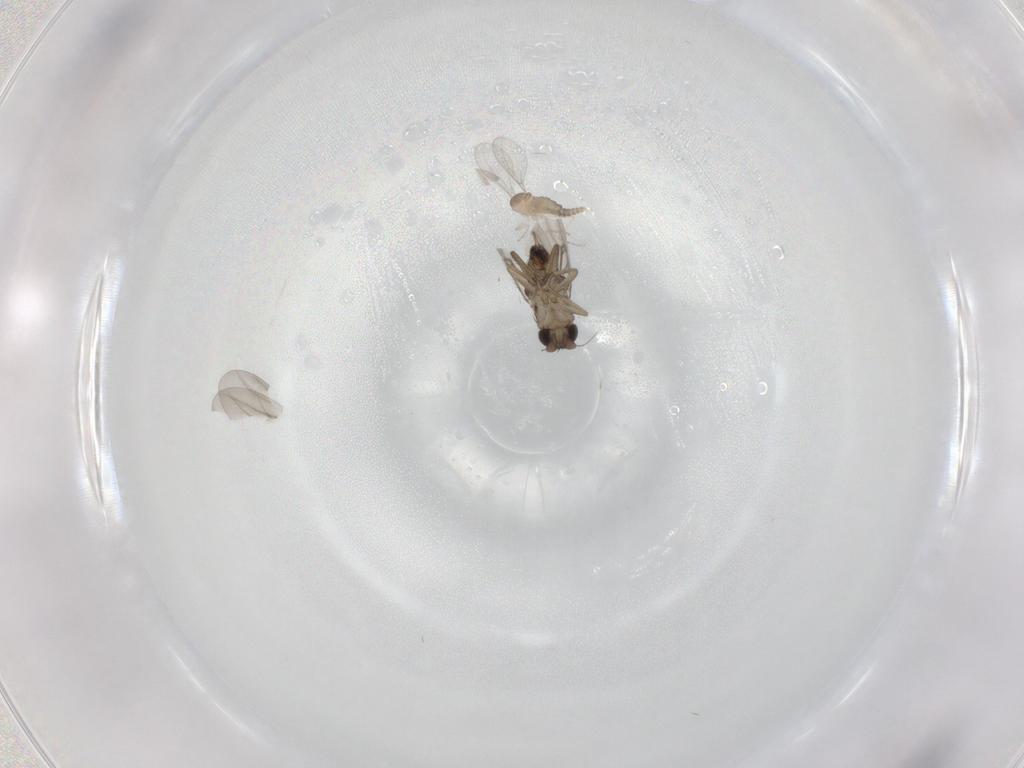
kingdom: Animalia
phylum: Arthropoda
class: Insecta
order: Diptera
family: Cecidomyiidae
